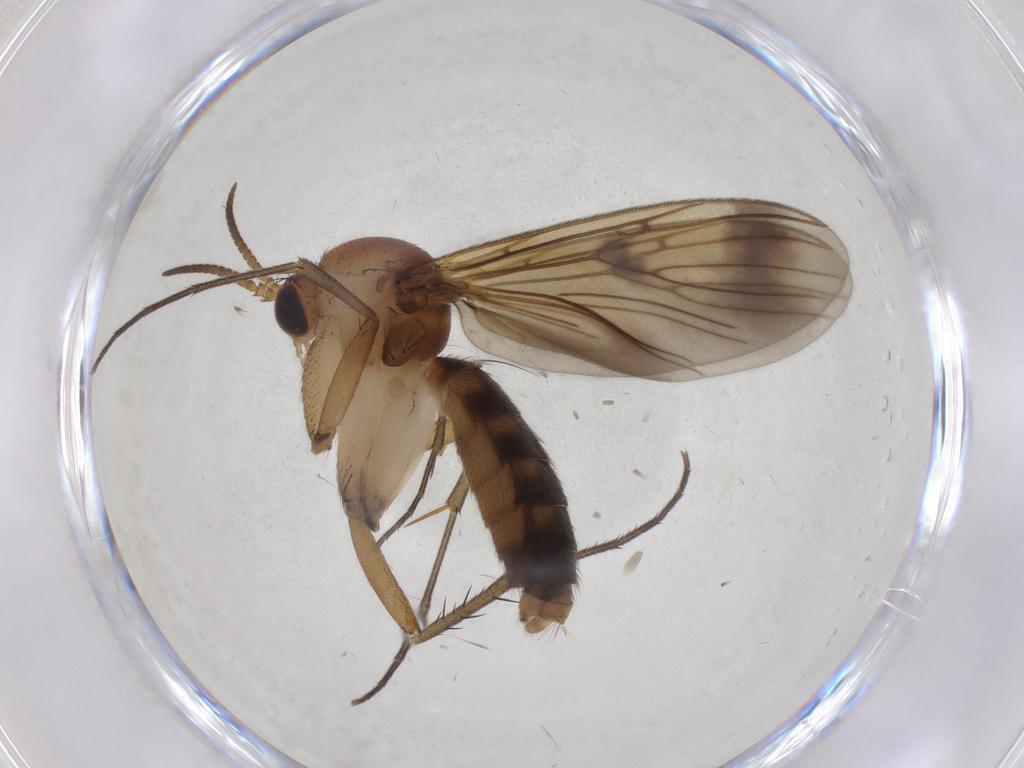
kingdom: Animalia
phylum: Arthropoda
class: Insecta
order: Diptera
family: Mycetophilidae
